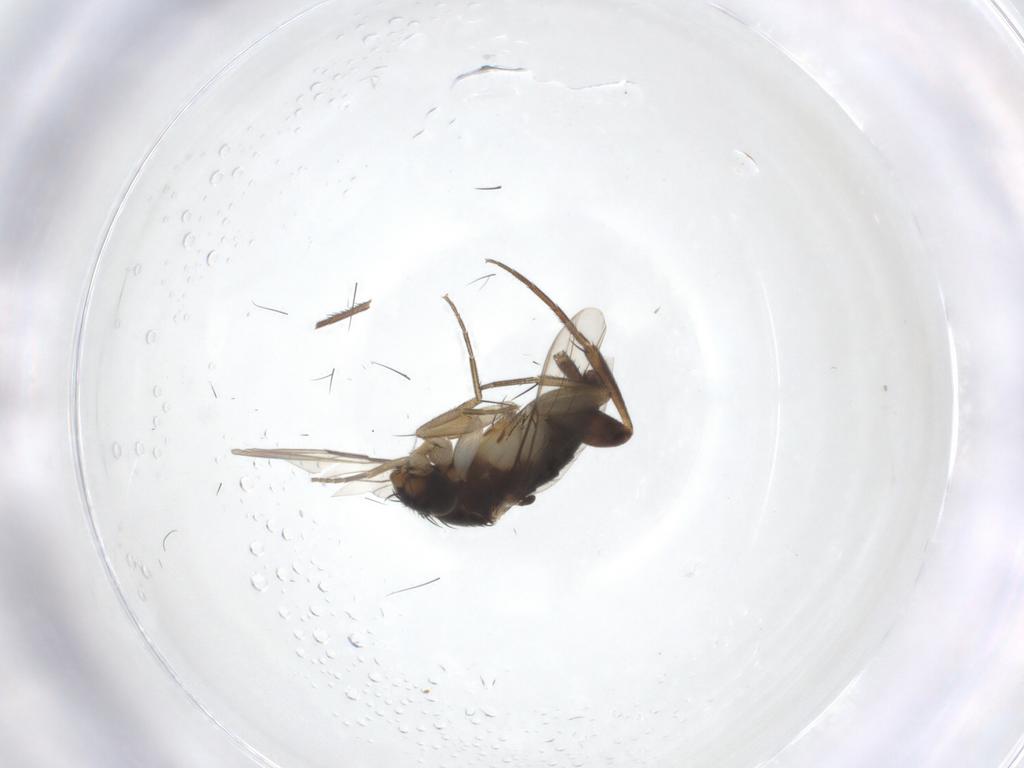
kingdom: Animalia
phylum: Arthropoda
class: Insecta
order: Diptera
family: Phoridae
